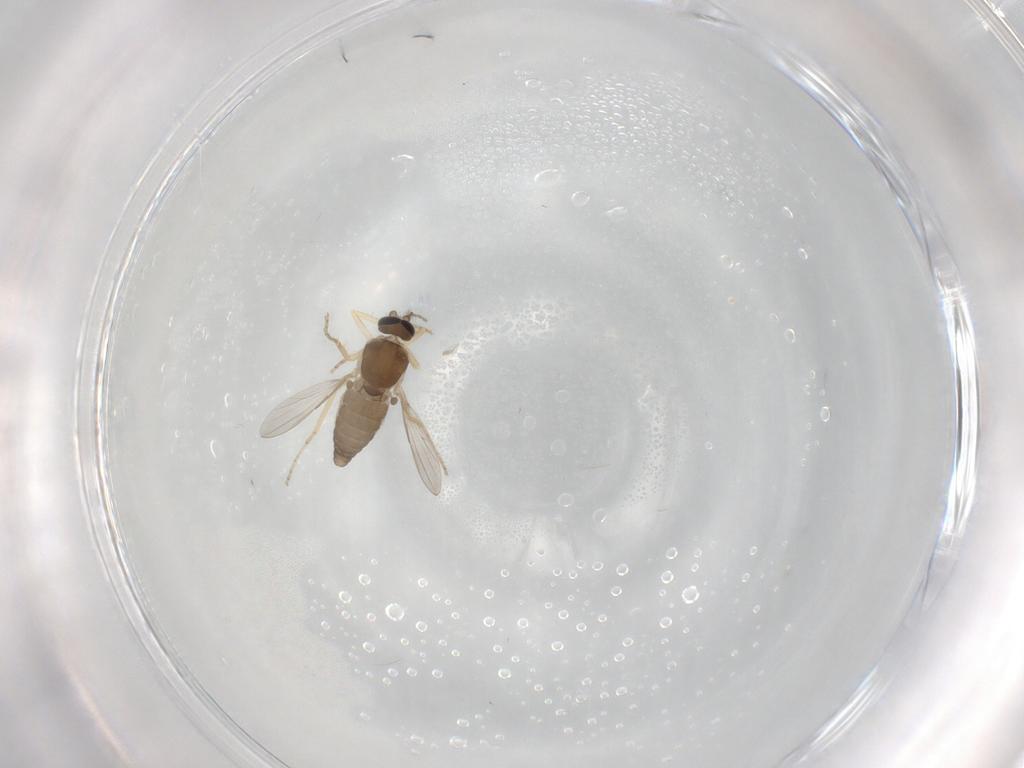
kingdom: Animalia
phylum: Arthropoda
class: Insecta
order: Diptera
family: Ceratopogonidae
